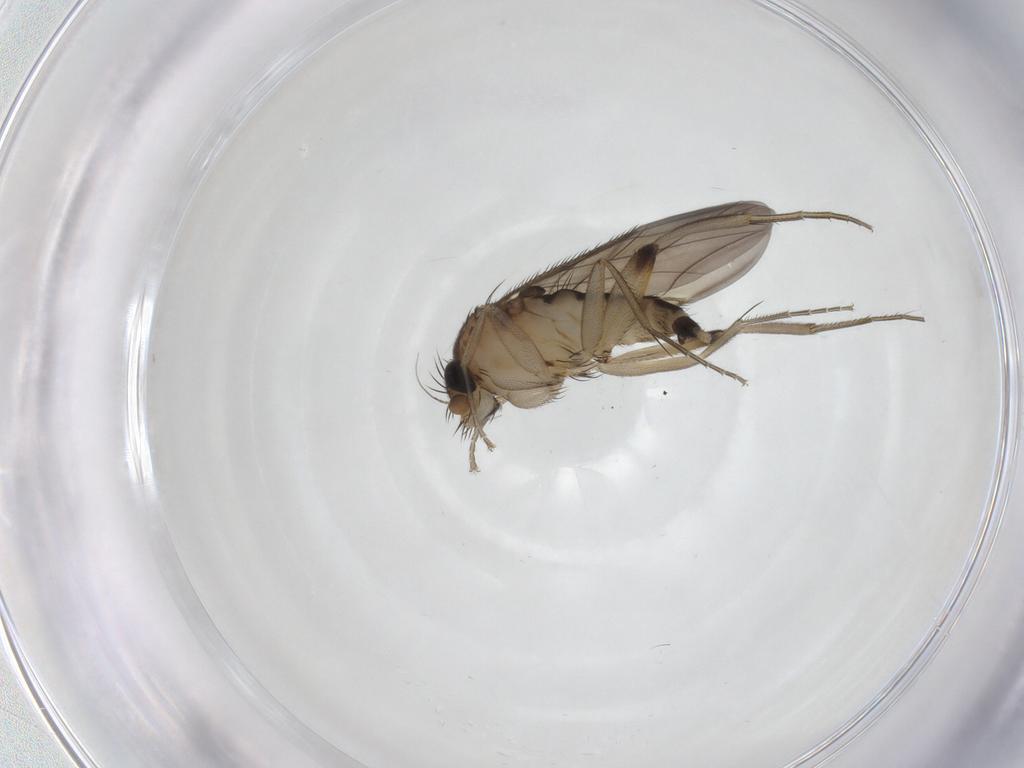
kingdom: Animalia
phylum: Arthropoda
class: Insecta
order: Diptera
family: Phoridae
